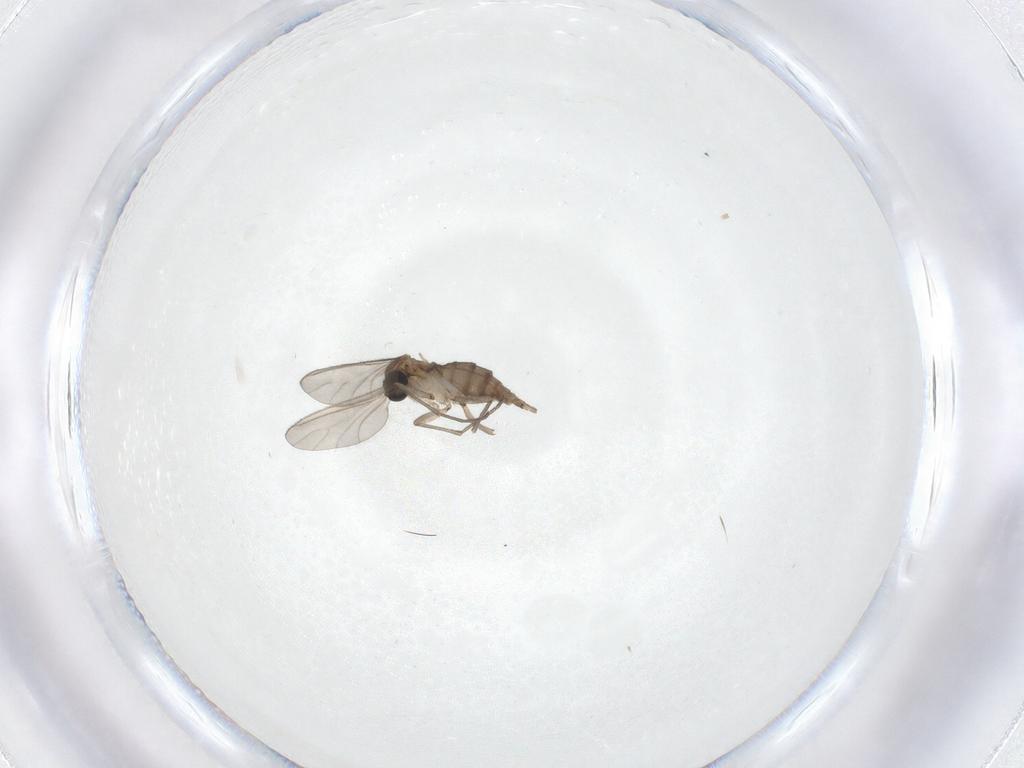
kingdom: Animalia
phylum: Arthropoda
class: Insecta
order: Diptera
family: Sciaridae
